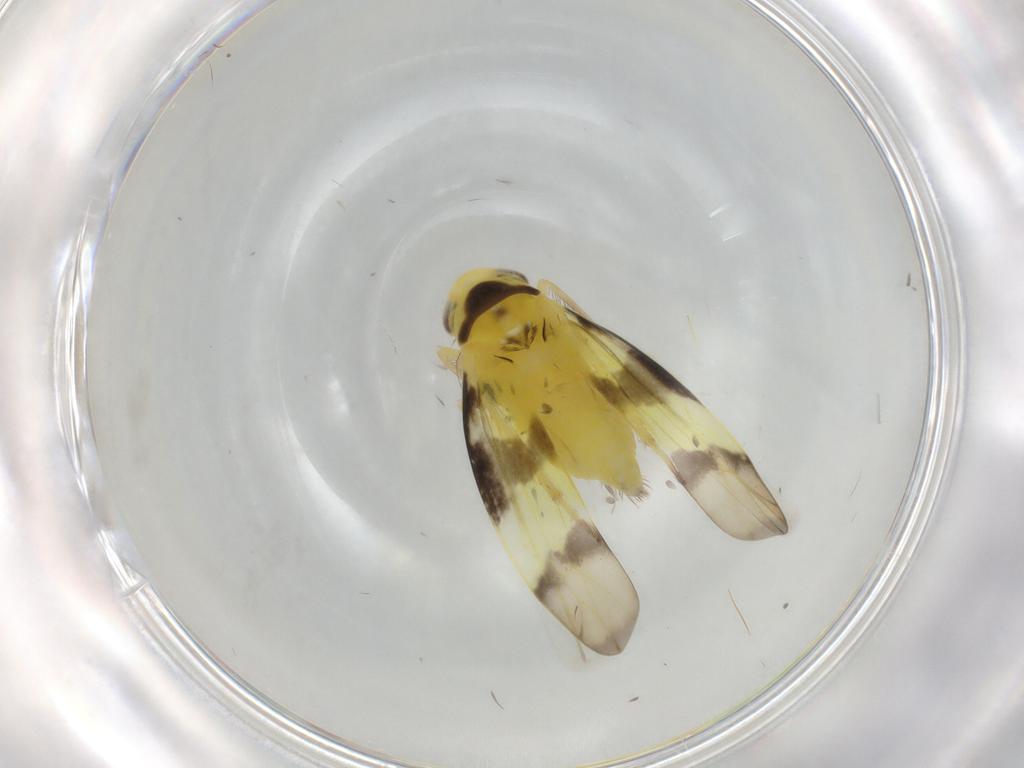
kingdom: Animalia
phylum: Arthropoda
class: Insecta
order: Hemiptera
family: Cicadellidae
